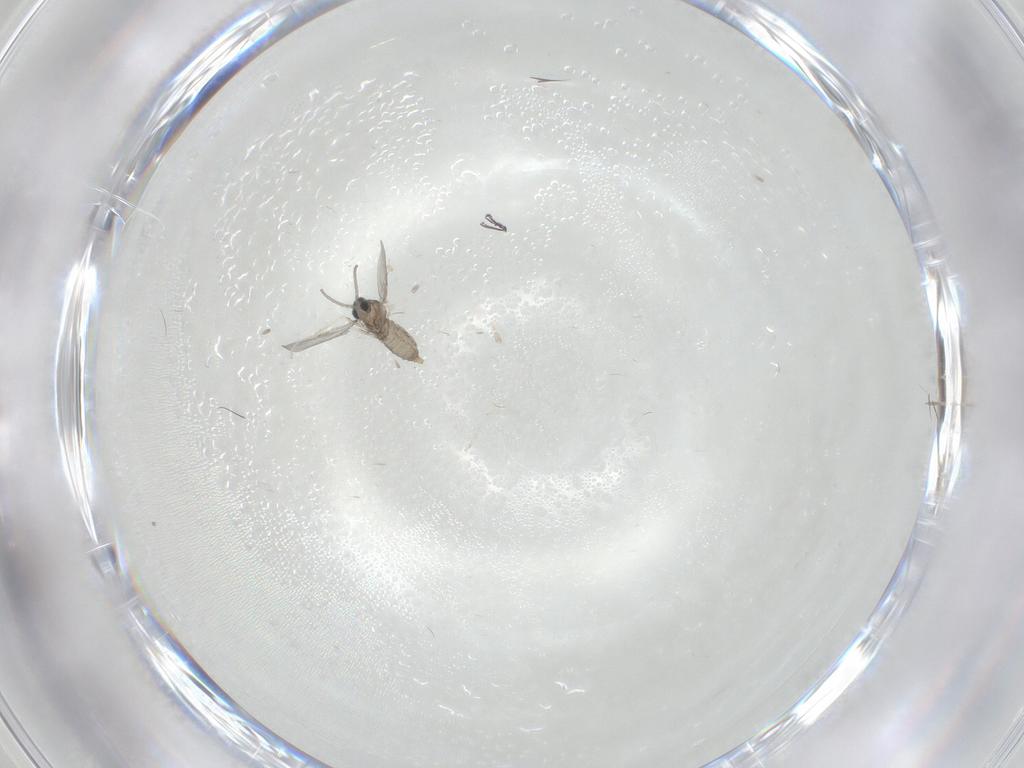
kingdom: Animalia
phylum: Arthropoda
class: Insecta
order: Diptera
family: Cecidomyiidae
